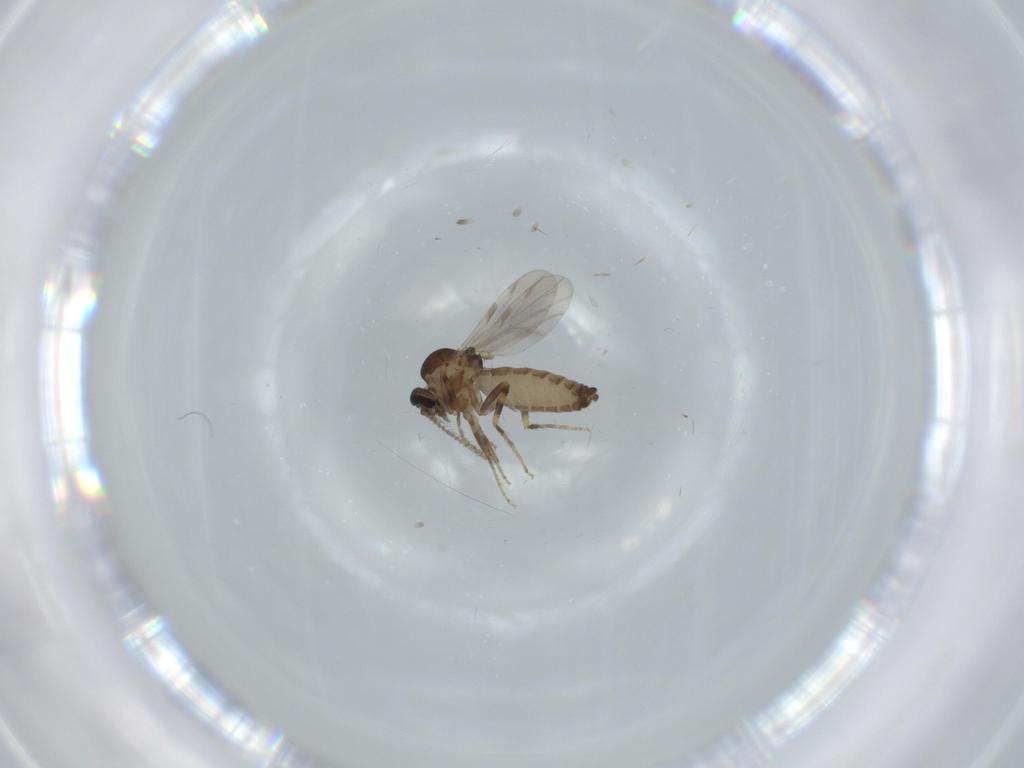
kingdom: Animalia
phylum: Arthropoda
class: Insecta
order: Diptera
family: Ceratopogonidae
